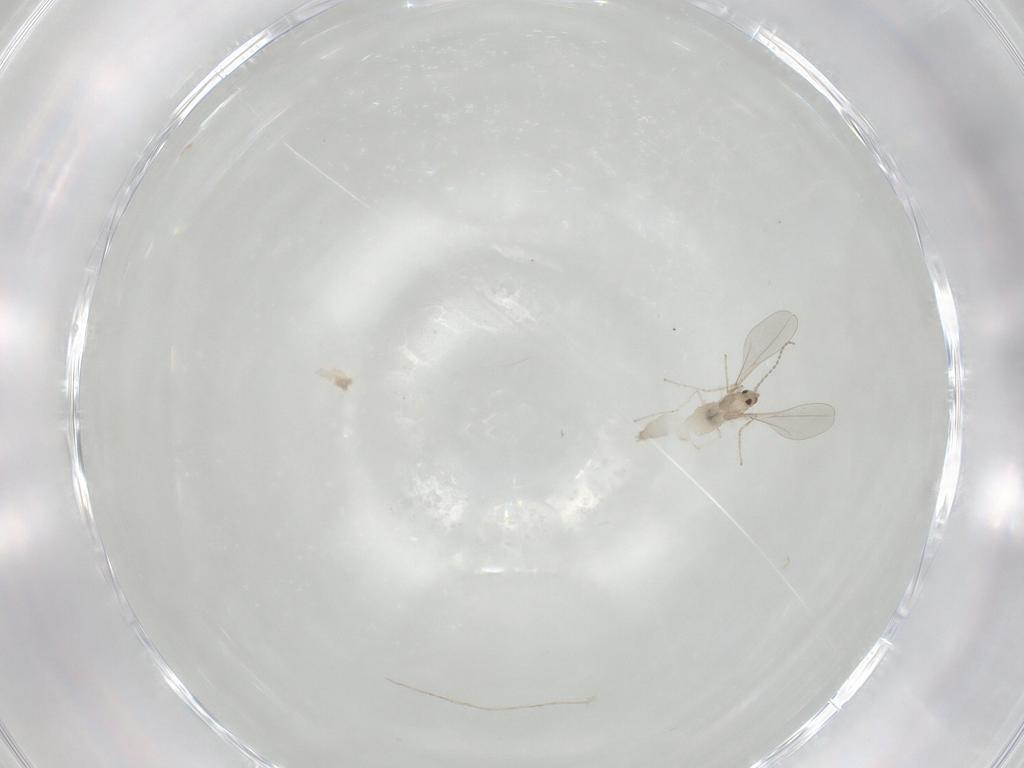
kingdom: Animalia
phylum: Arthropoda
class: Insecta
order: Diptera
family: Cecidomyiidae
